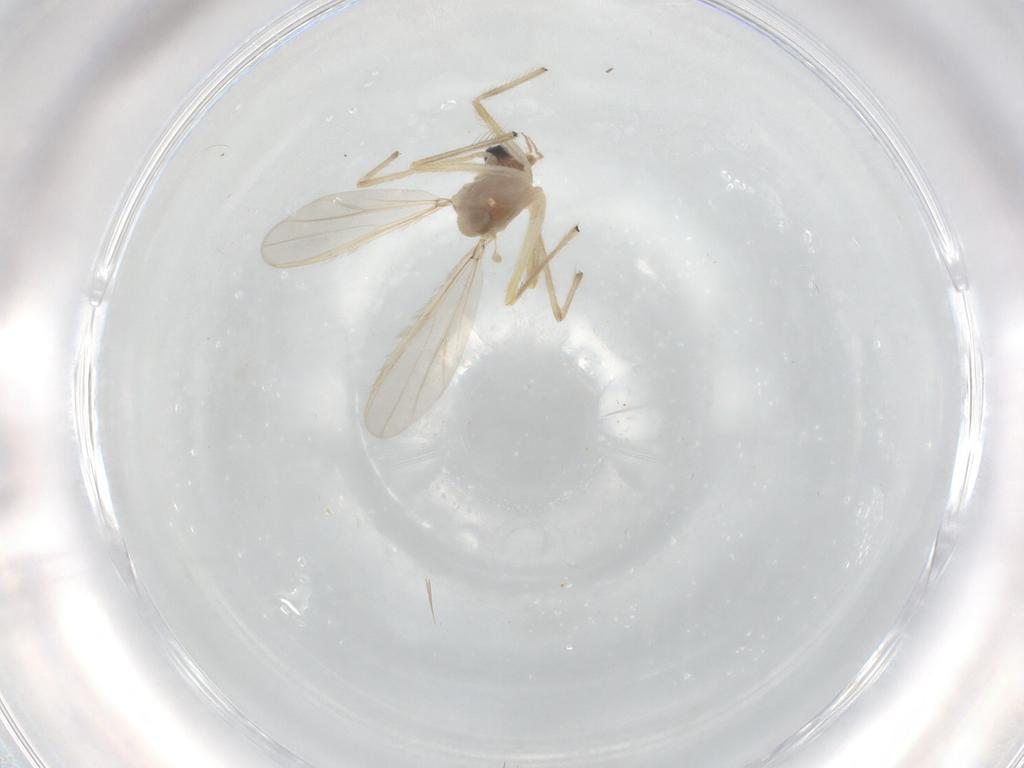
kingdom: Animalia
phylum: Arthropoda
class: Insecta
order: Diptera
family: Chironomidae
